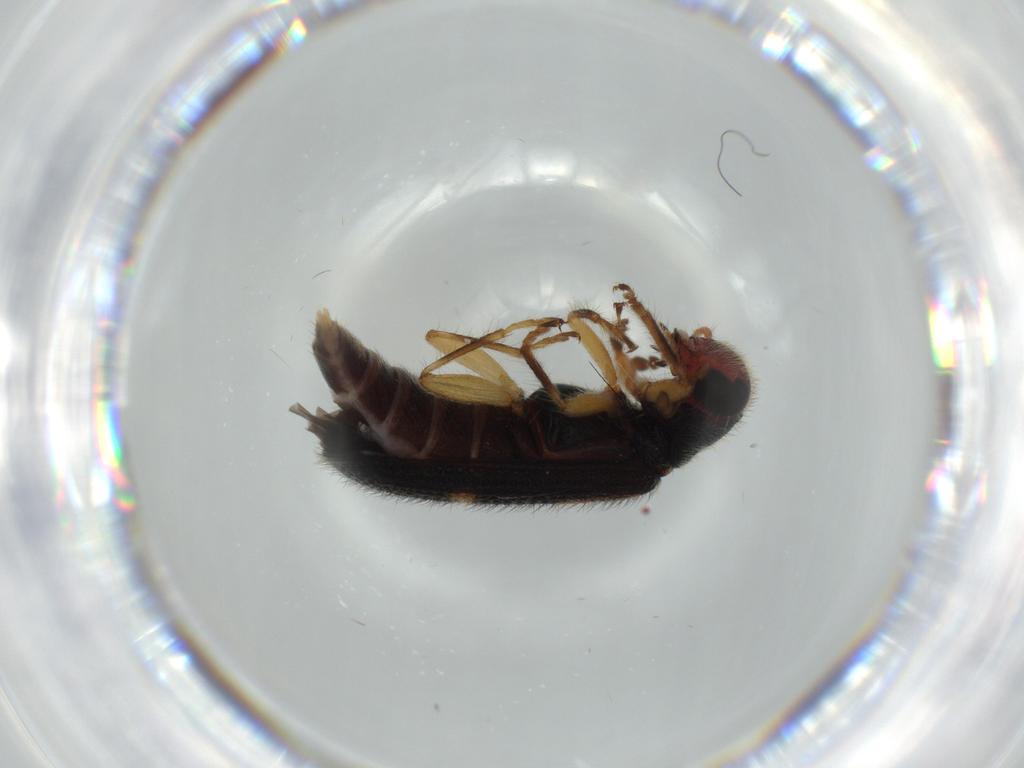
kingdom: Animalia
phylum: Arthropoda
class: Insecta
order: Coleoptera
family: Cleridae
